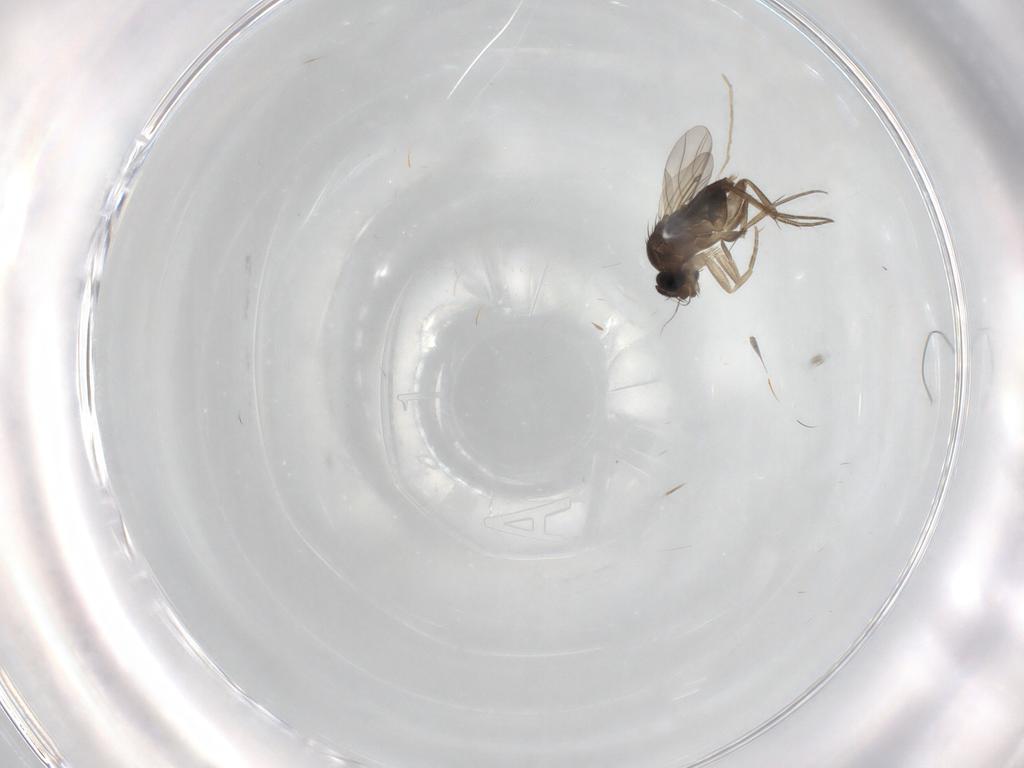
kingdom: Animalia
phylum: Arthropoda
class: Insecta
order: Diptera
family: Phoridae
